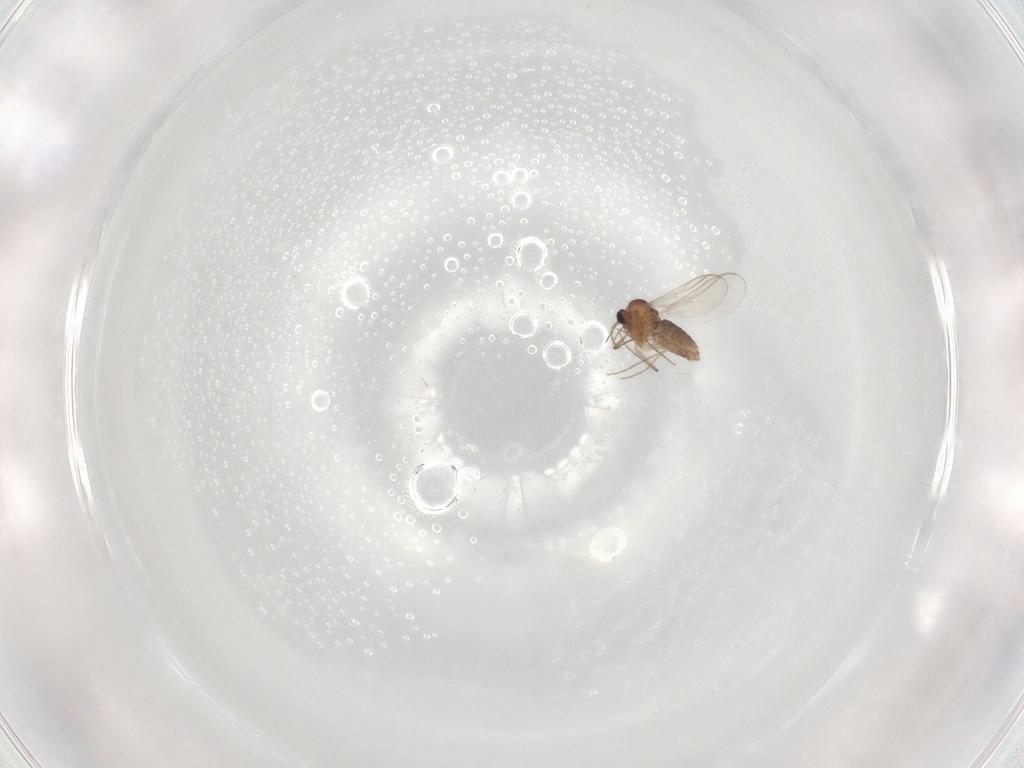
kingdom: Animalia
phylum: Arthropoda
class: Insecta
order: Diptera
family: Chironomidae
